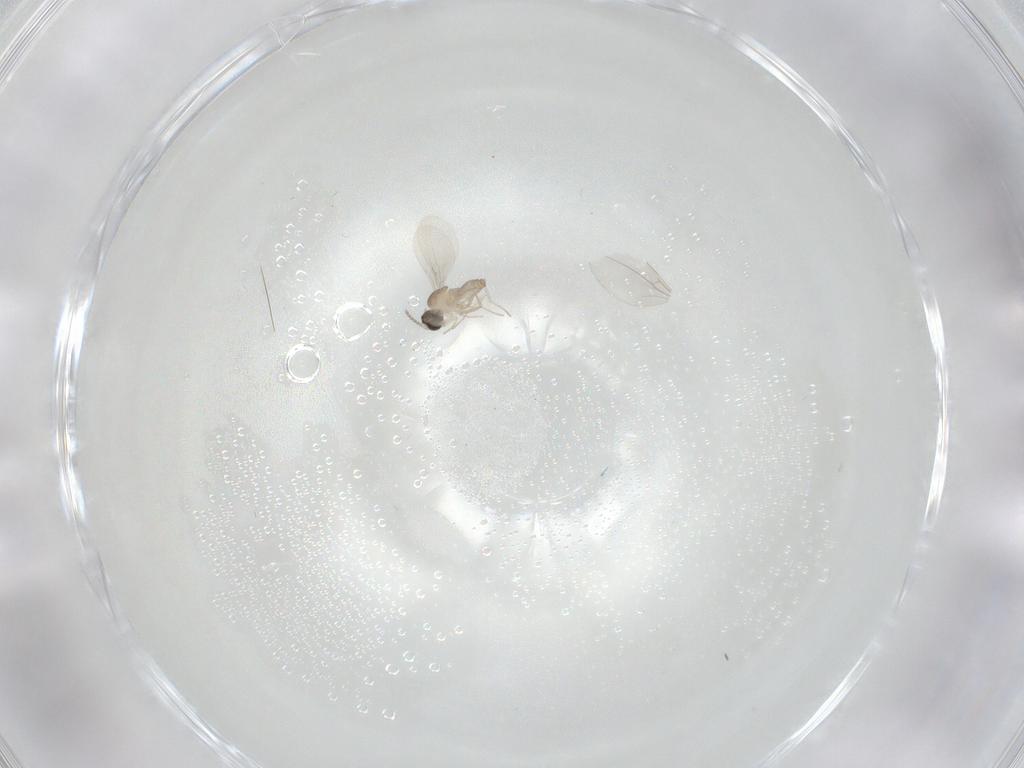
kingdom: Animalia
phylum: Arthropoda
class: Insecta
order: Diptera
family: Cecidomyiidae
